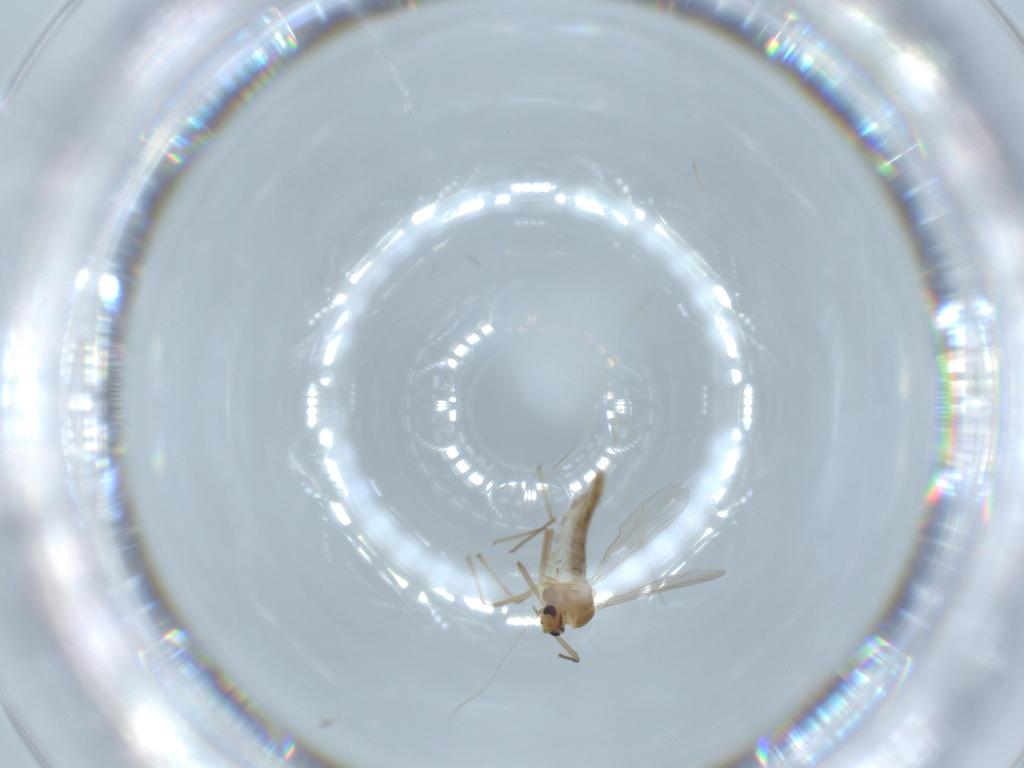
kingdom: Animalia
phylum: Arthropoda
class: Insecta
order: Diptera
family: Chironomidae
